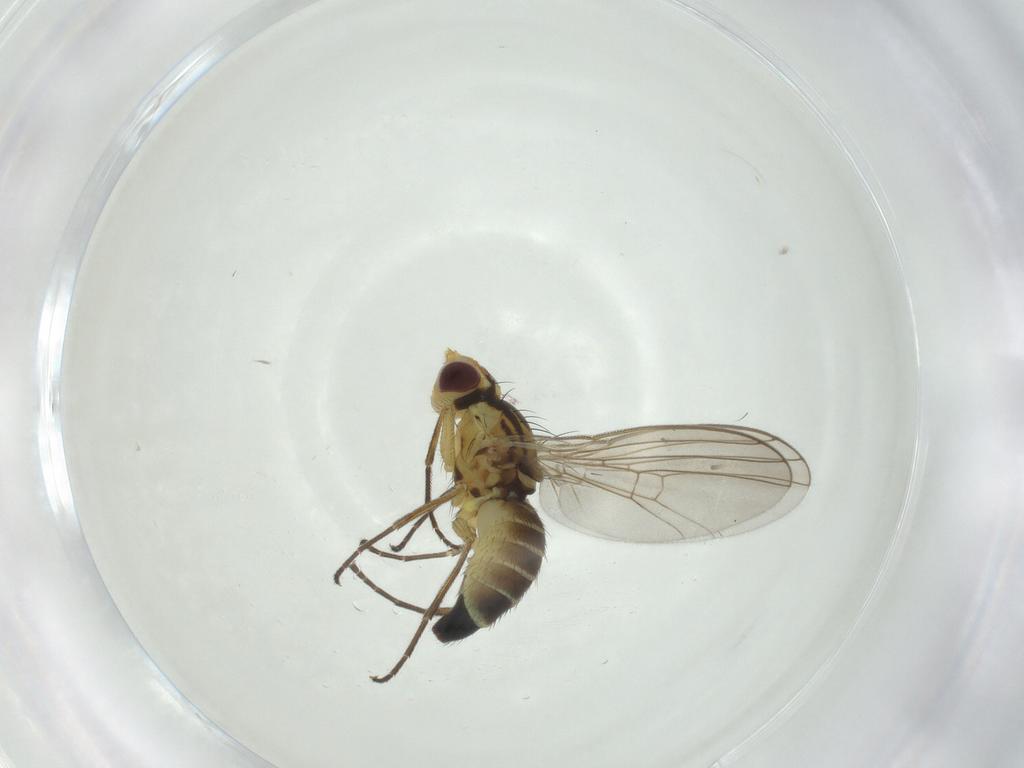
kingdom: Animalia
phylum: Arthropoda
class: Insecta
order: Diptera
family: Agromyzidae
